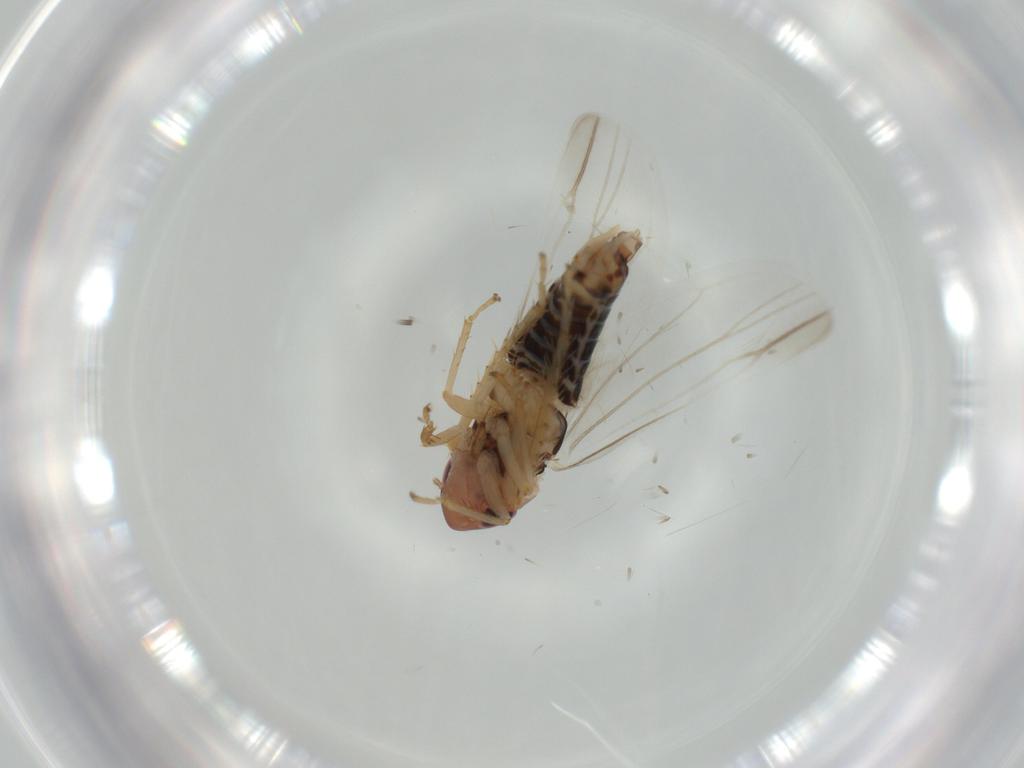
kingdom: Animalia
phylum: Arthropoda
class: Insecta
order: Hemiptera
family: Cicadellidae
